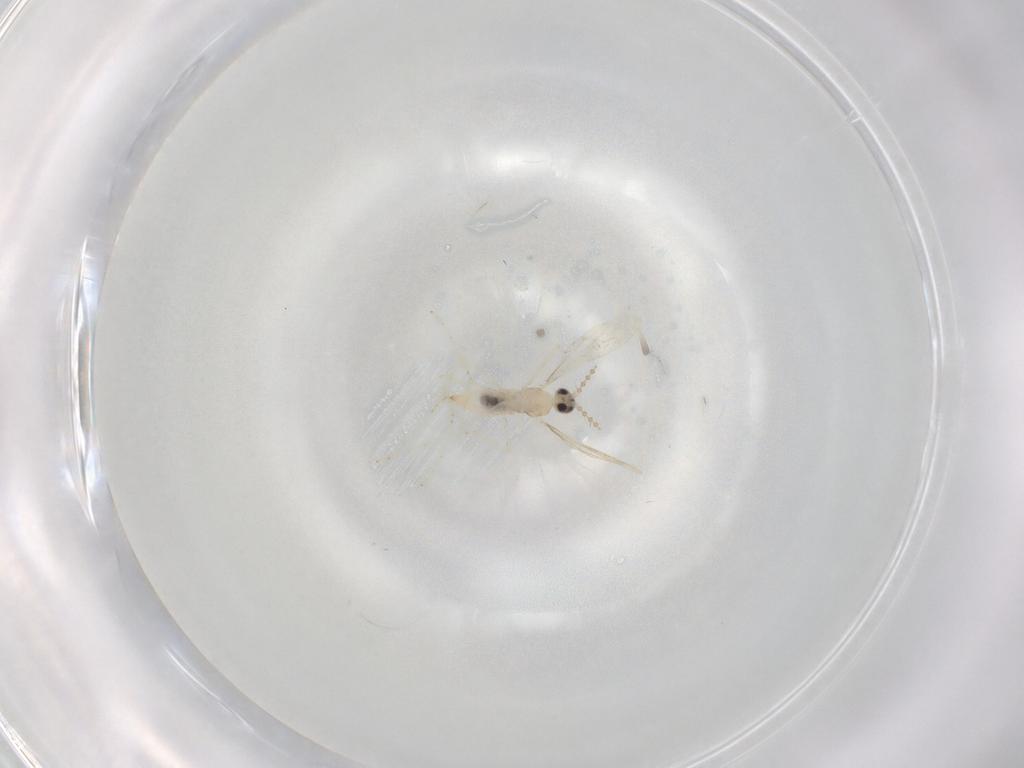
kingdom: Animalia
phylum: Arthropoda
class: Insecta
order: Diptera
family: Cecidomyiidae
